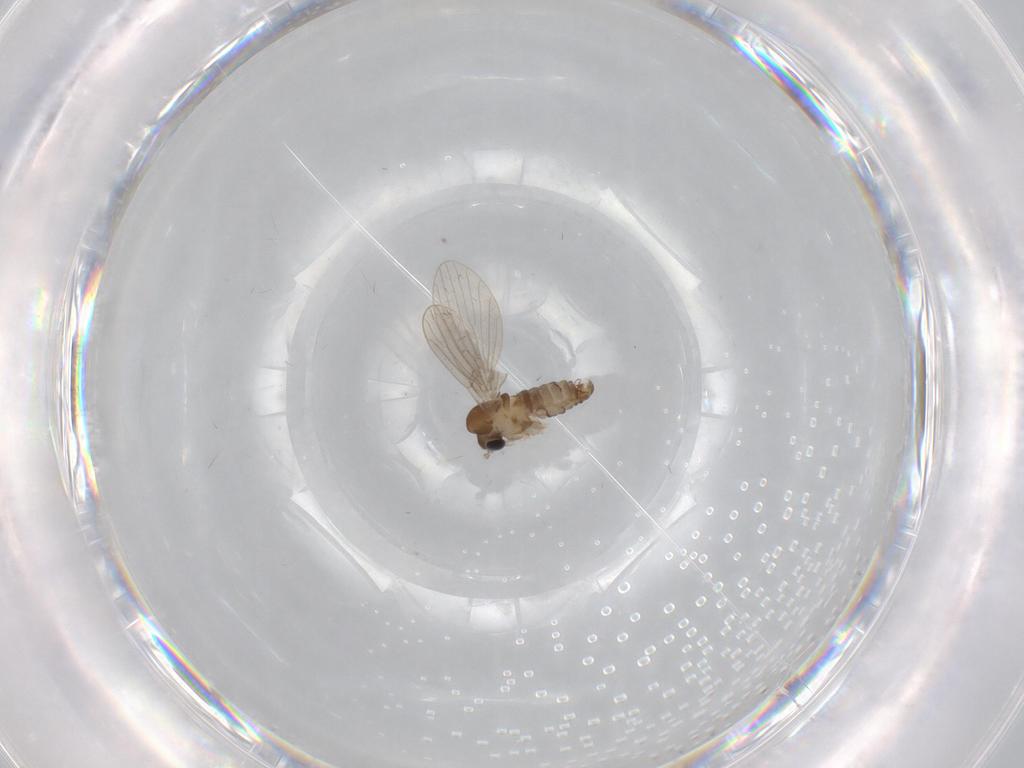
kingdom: Animalia
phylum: Arthropoda
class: Insecta
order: Diptera
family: Psychodidae
